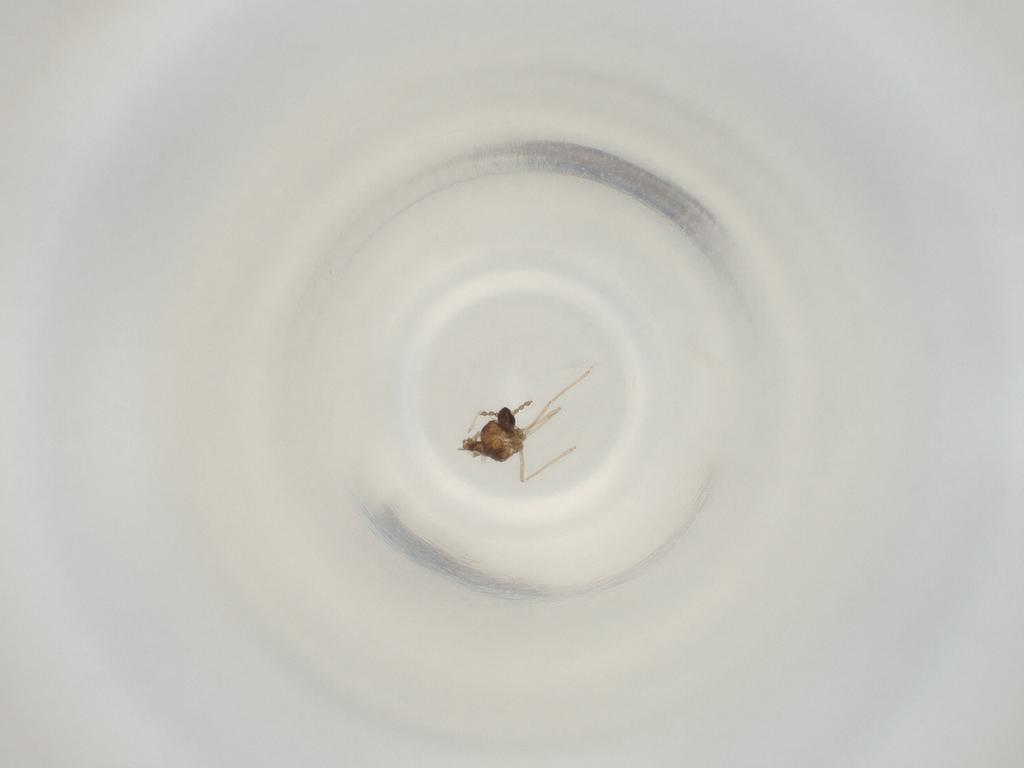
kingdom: Animalia
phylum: Arthropoda
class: Insecta
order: Diptera
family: Cecidomyiidae
